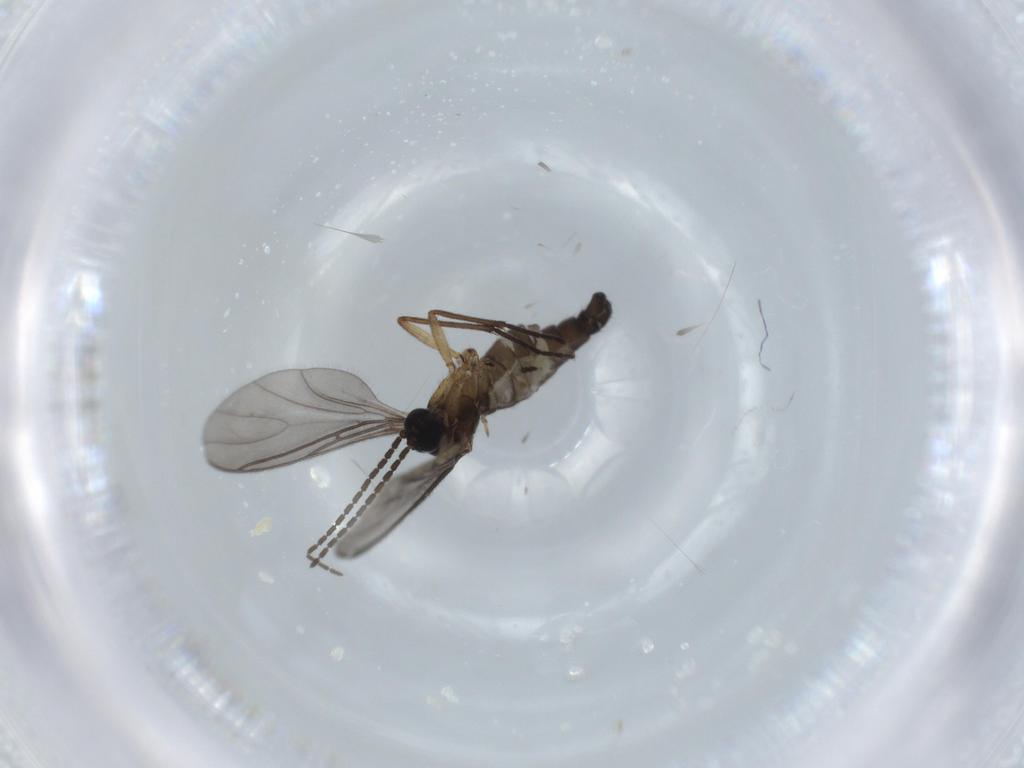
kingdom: Animalia
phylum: Arthropoda
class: Insecta
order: Diptera
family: Sciaridae
